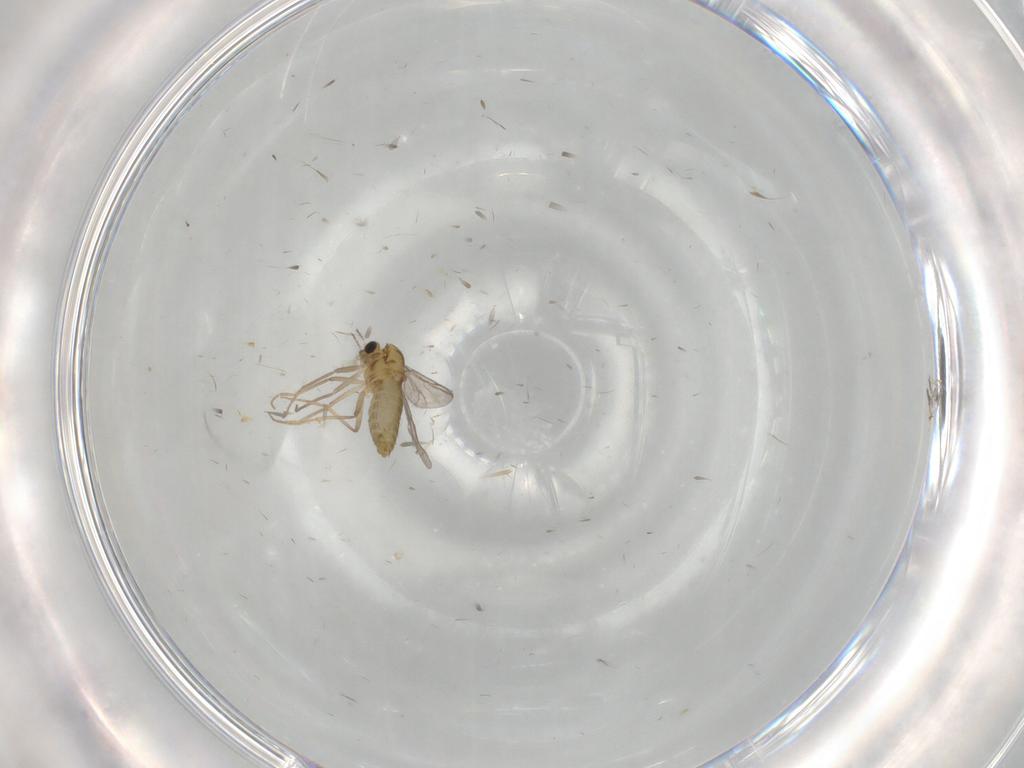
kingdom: Animalia
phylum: Arthropoda
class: Insecta
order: Diptera
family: Chironomidae
